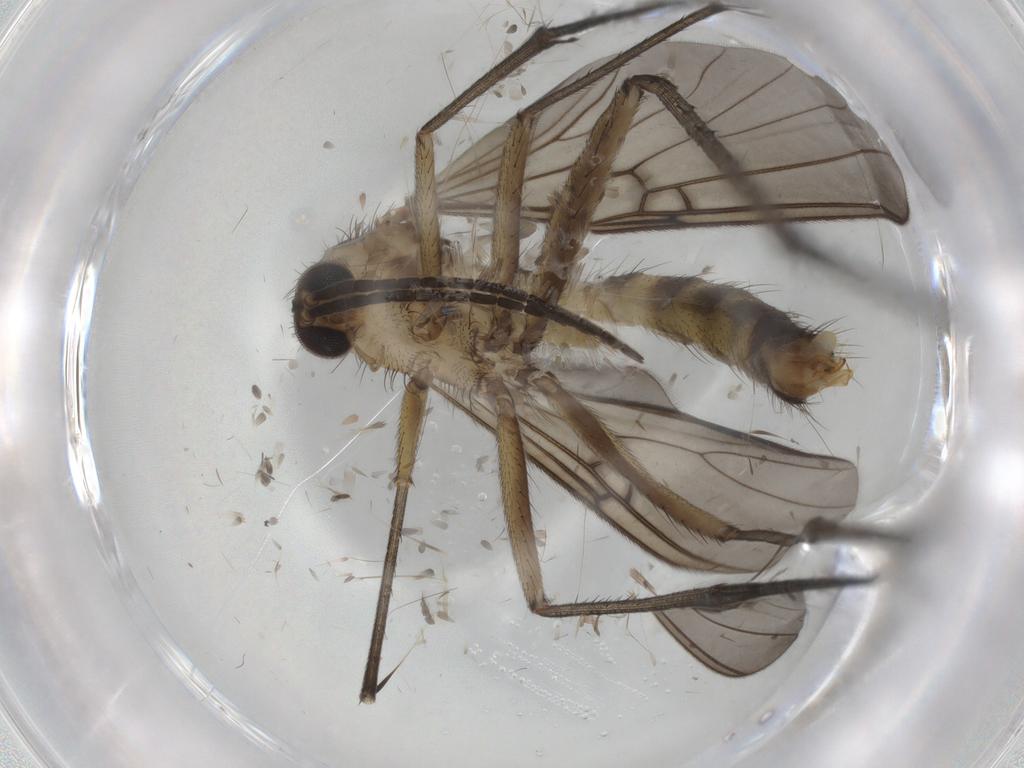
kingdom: Animalia
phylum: Arthropoda
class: Insecta
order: Diptera
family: Mycetophilidae
